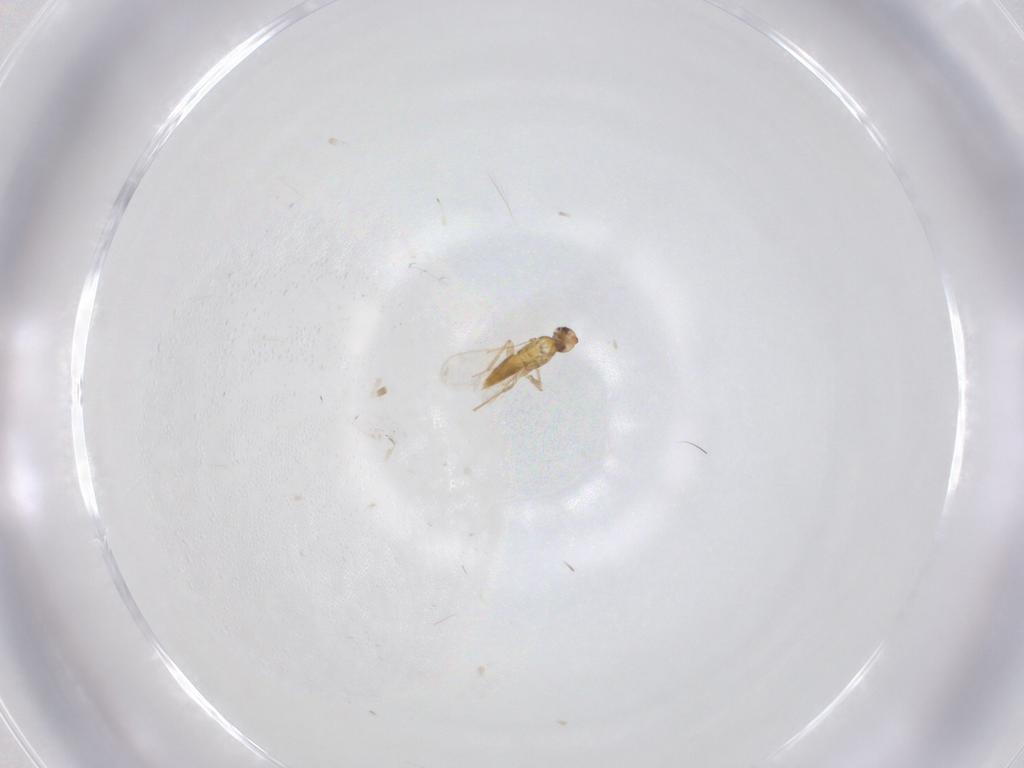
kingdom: Animalia
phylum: Arthropoda
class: Insecta
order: Hymenoptera
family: Aphelinidae
